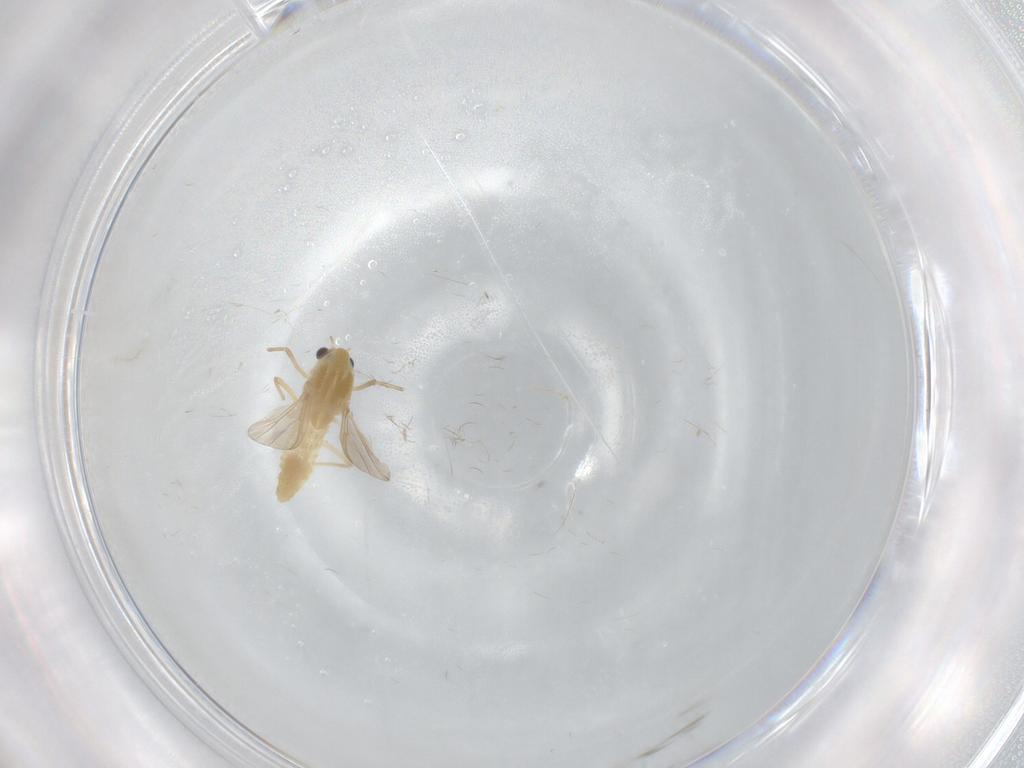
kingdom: Animalia
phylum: Arthropoda
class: Insecta
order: Diptera
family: Chironomidae
